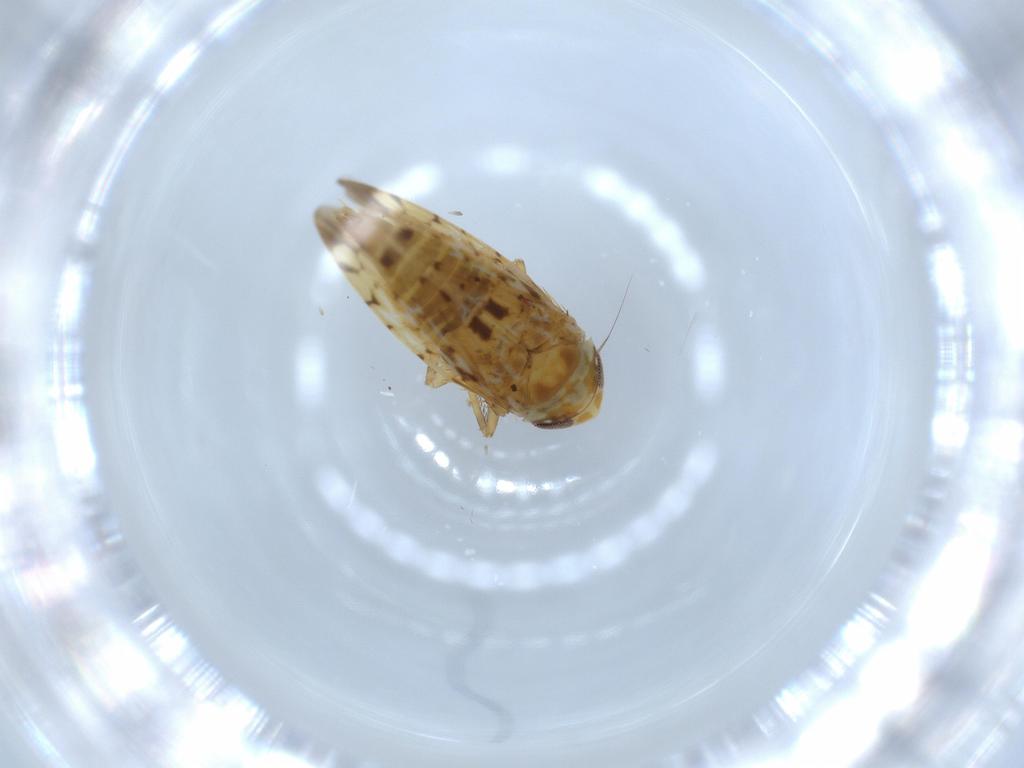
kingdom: Animalia
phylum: Arthropoda
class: Insecta
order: Hemiptera
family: Cicadellidae
